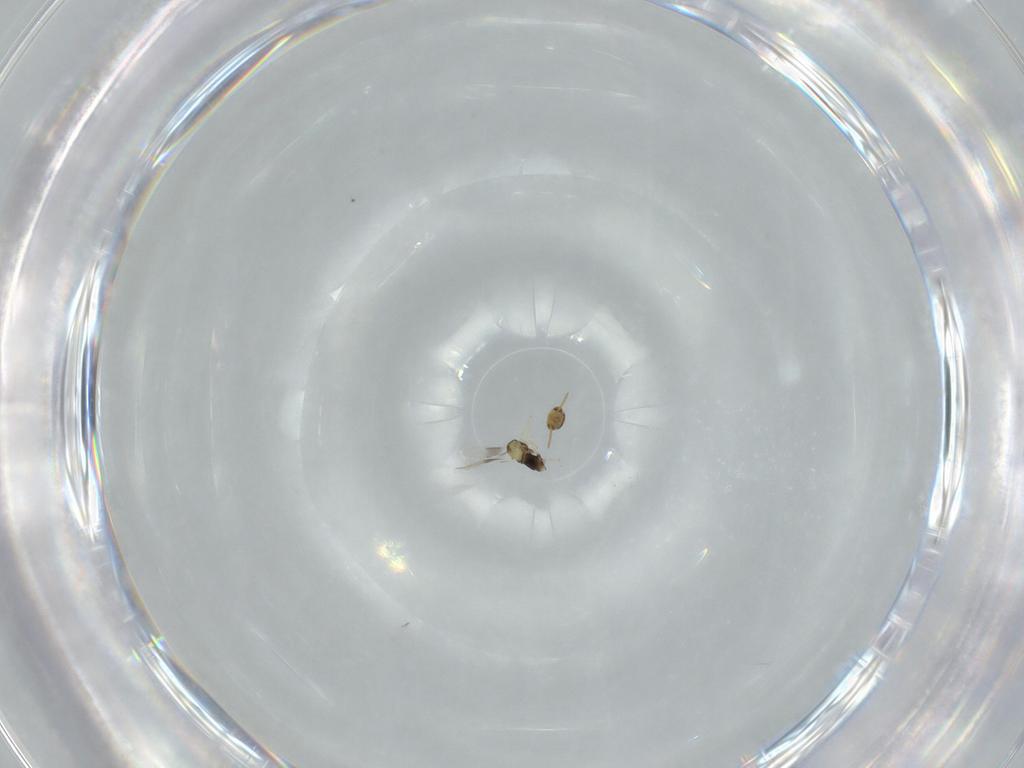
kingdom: Animalia
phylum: Arthropoda
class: Insecta
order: Hymenoptera
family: Aphelinidae
